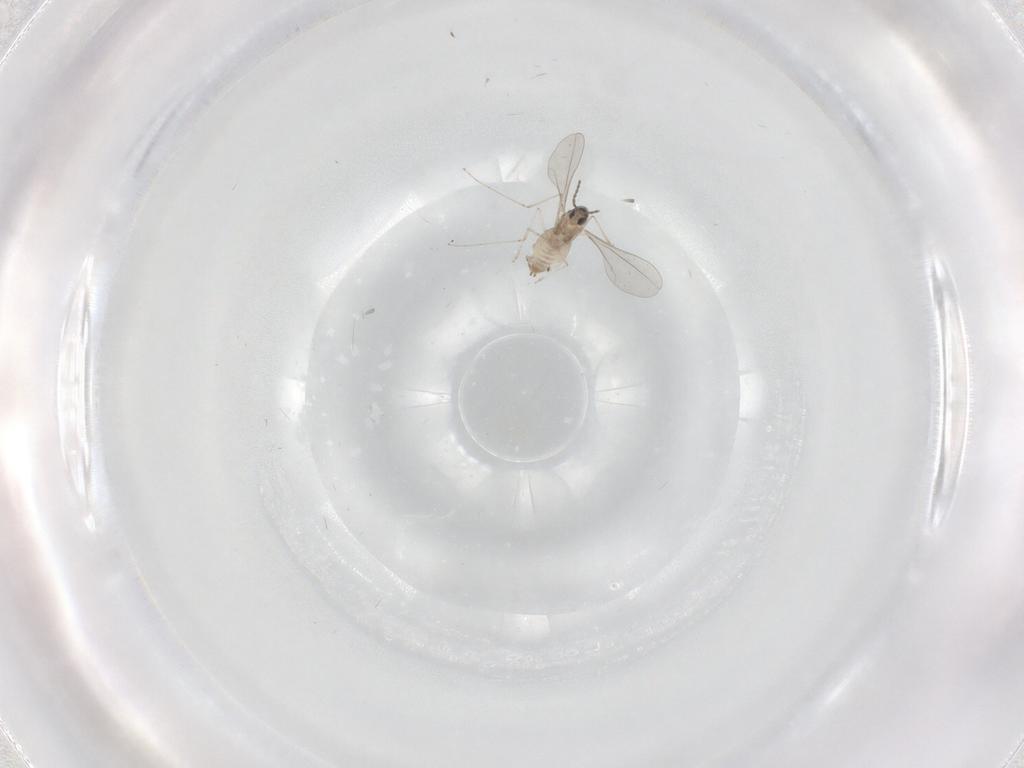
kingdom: Animalia
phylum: Arthropoda
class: Insecta
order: Diptera
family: Cecidomyiidae
